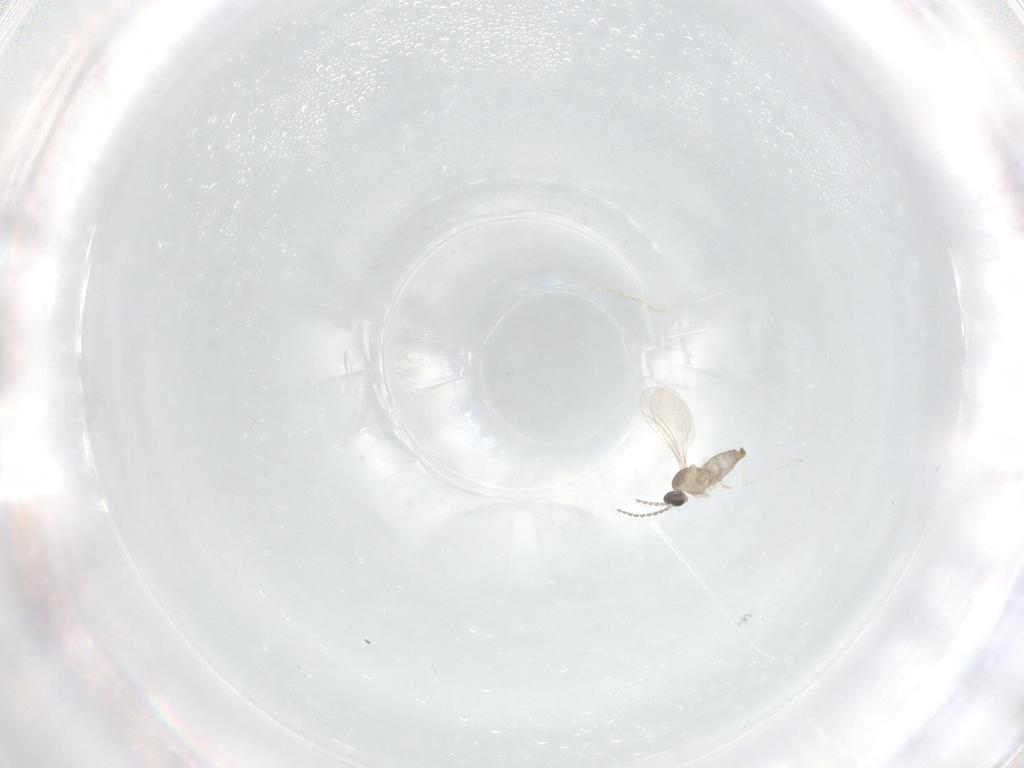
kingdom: Animalia
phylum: Arthropoda
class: Insecta
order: Diptera
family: Cecidomyiidae
